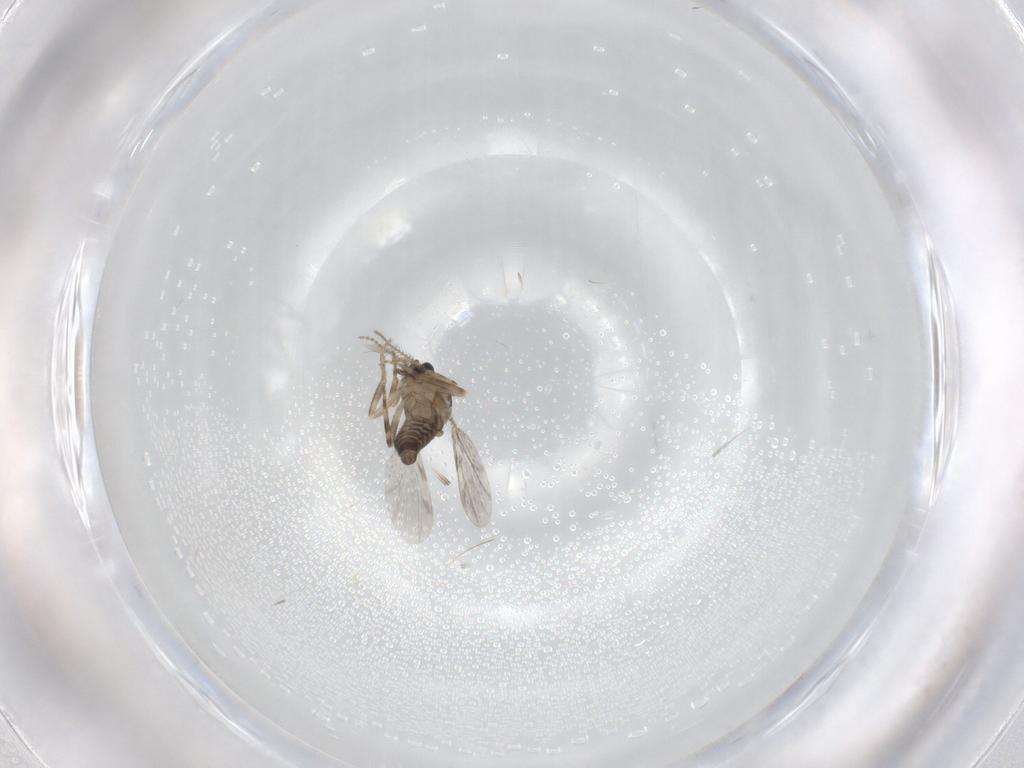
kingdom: Animalia
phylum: Arthropoda
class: Insecta
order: Diptera
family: Ceratopogonidae
